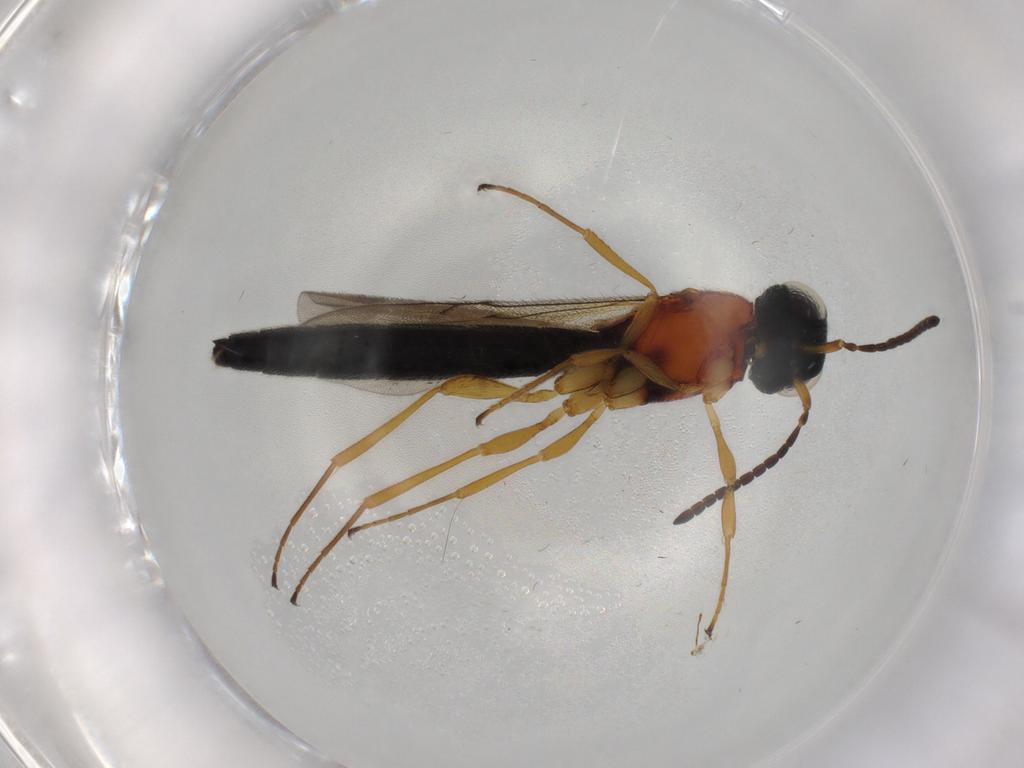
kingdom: Animalia
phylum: Arthropoda
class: Insecta
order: Hymenoptera
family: Scelionidae
